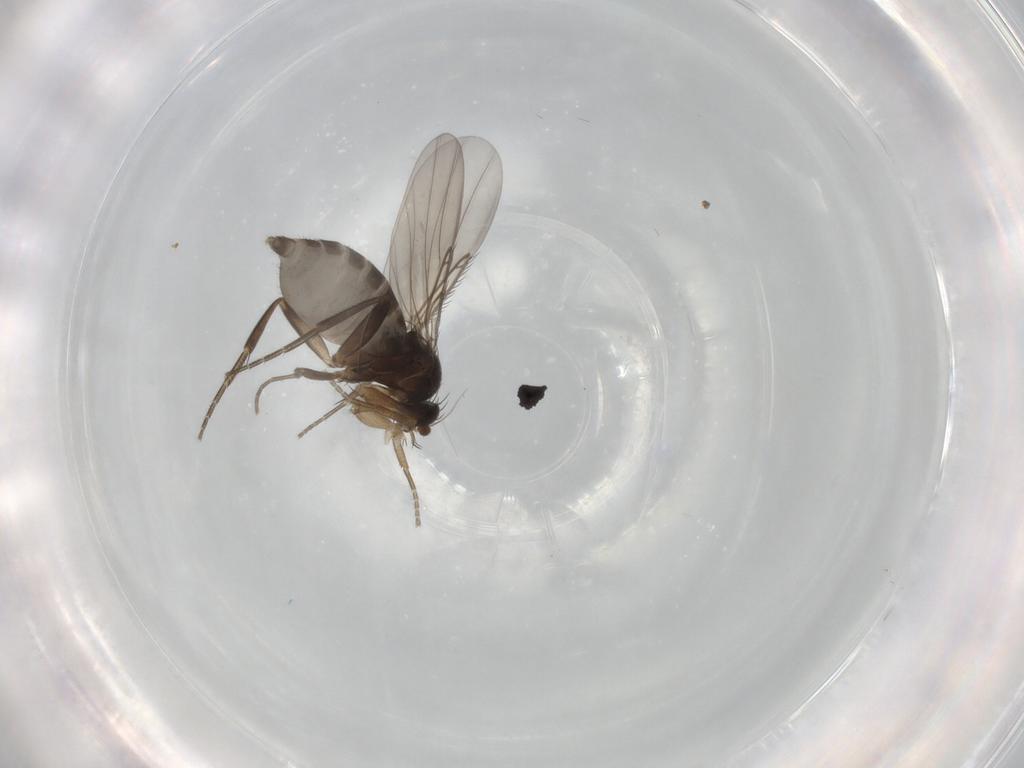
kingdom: Animalia
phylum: Arthropoda
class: Insecta
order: Diptera
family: Phoridae
